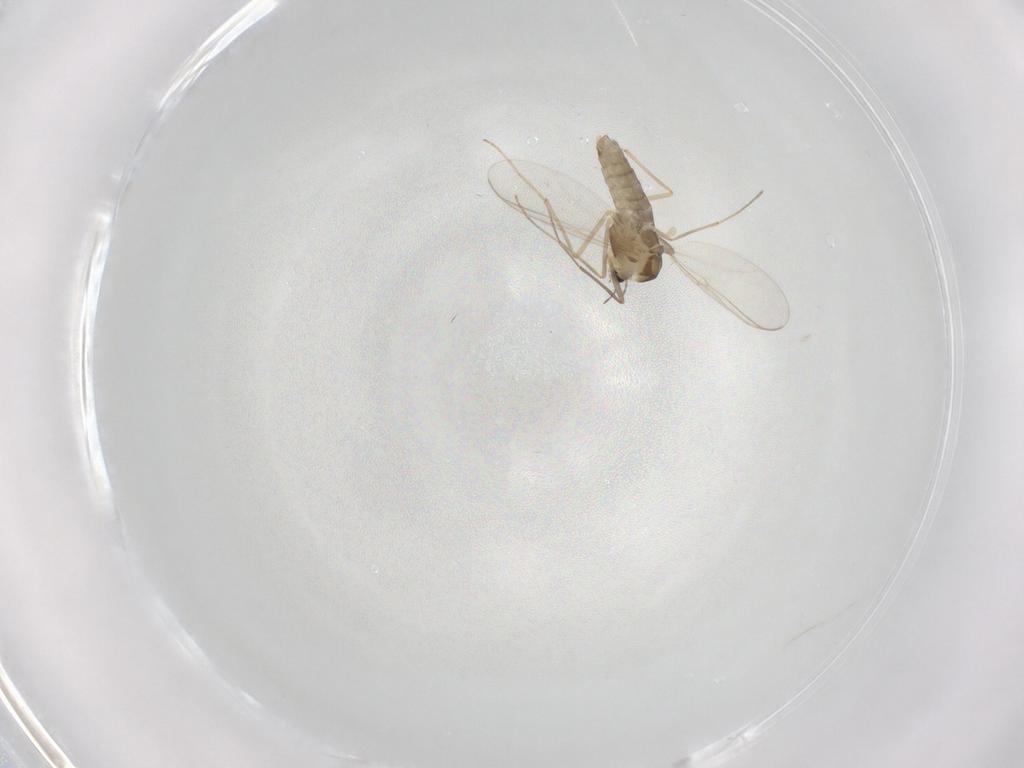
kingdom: Animalia
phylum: Arthropoda
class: Insecta
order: Diptera
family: Chironomidae
